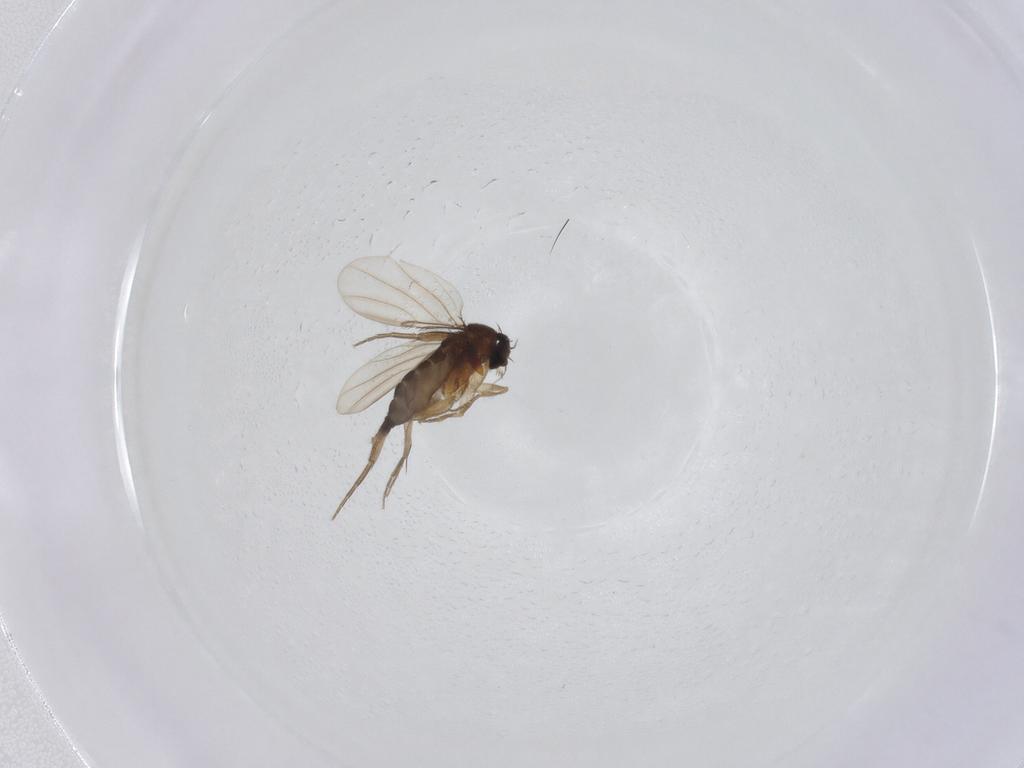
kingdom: Animalia
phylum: Arthropoda
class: Insecta
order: Diptera
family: Phoridae
